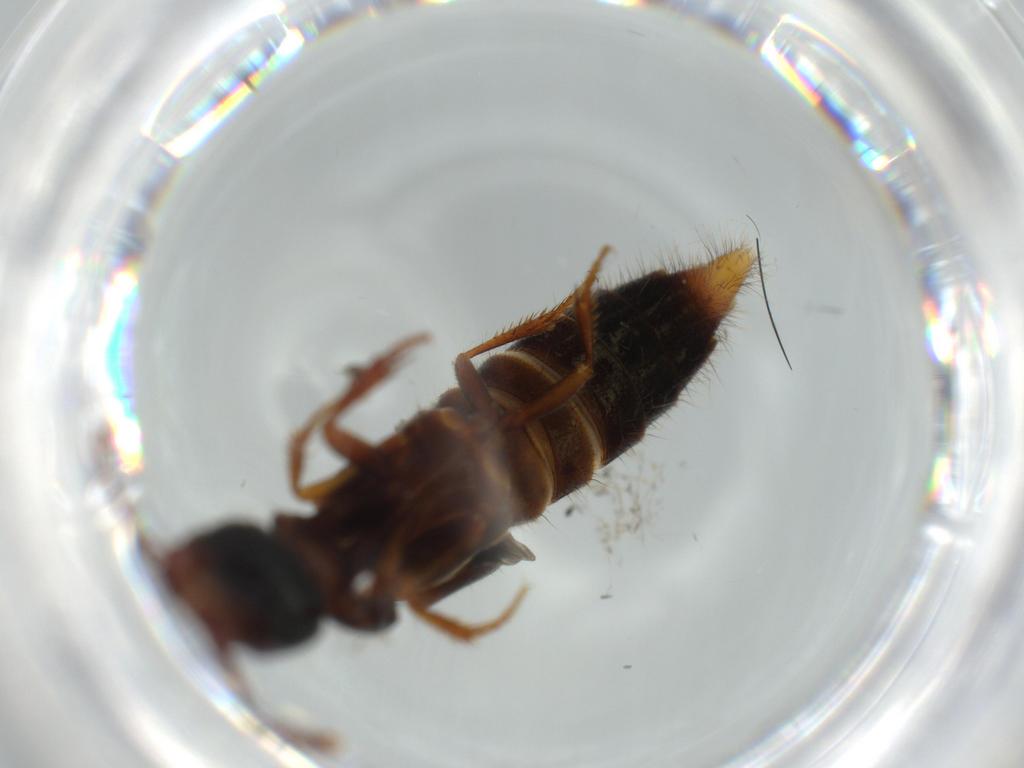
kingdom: Animalia
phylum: Arthropoda
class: Insecta
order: Coleoptera
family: Staphylinidae
